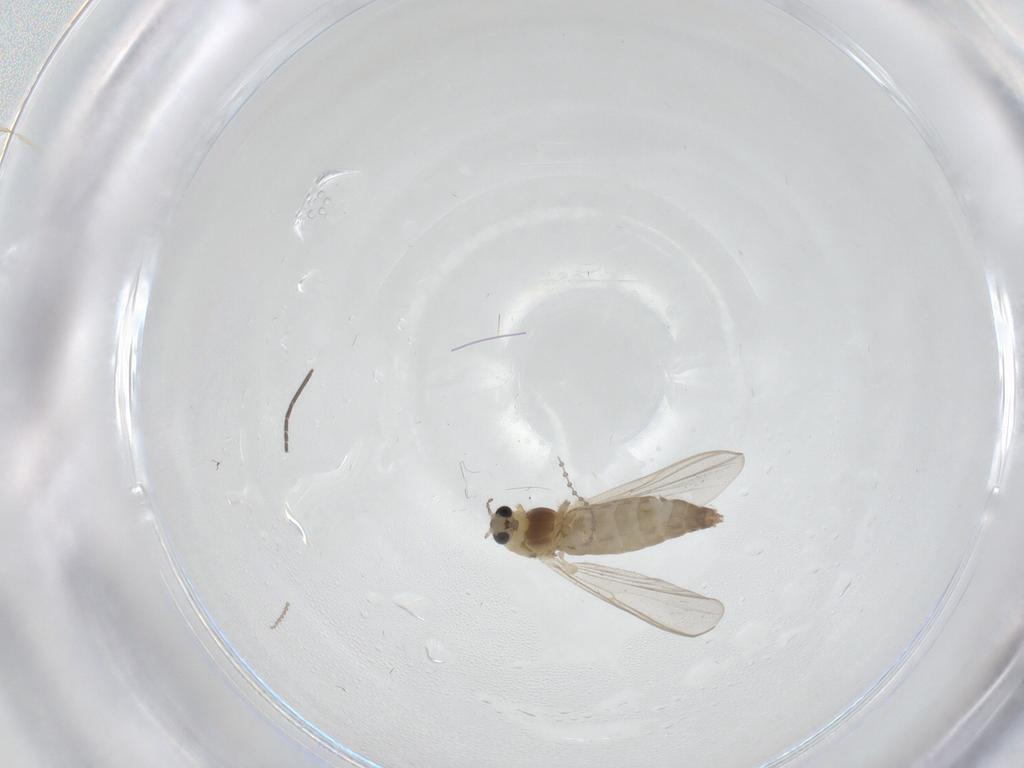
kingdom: Animalia
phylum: Arthropoda
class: Insecta
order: Diptera
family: Chironomidae
